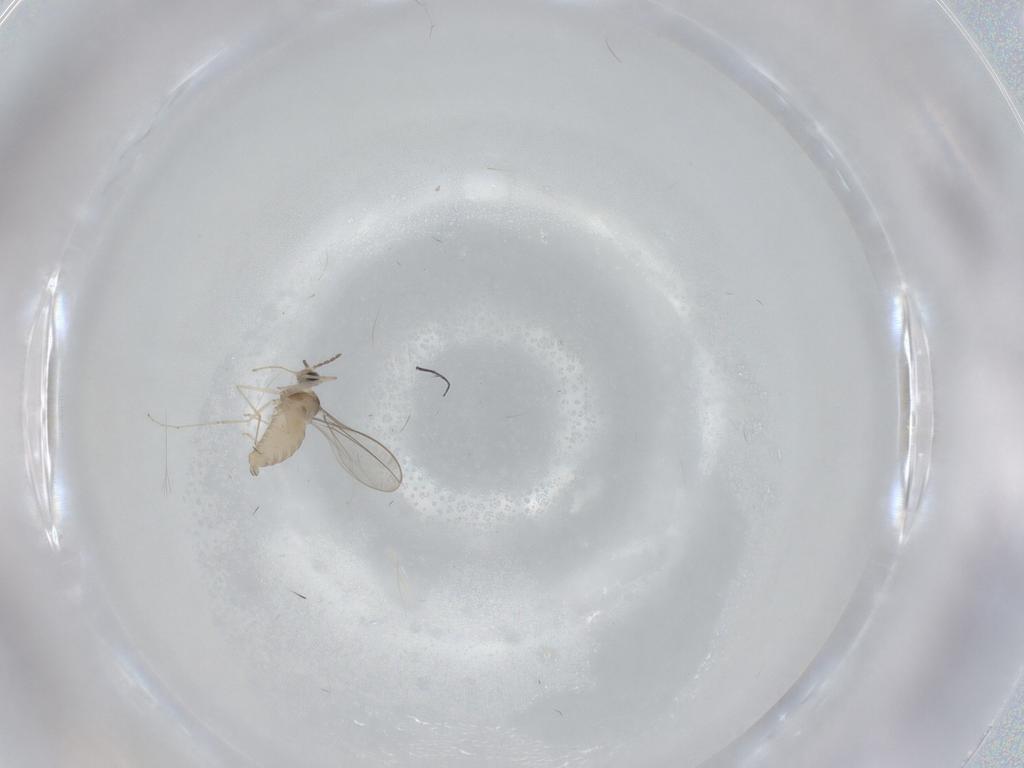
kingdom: Animalia
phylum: Arthropoda
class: Insecta
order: Diptera
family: Cecidomyiidae
